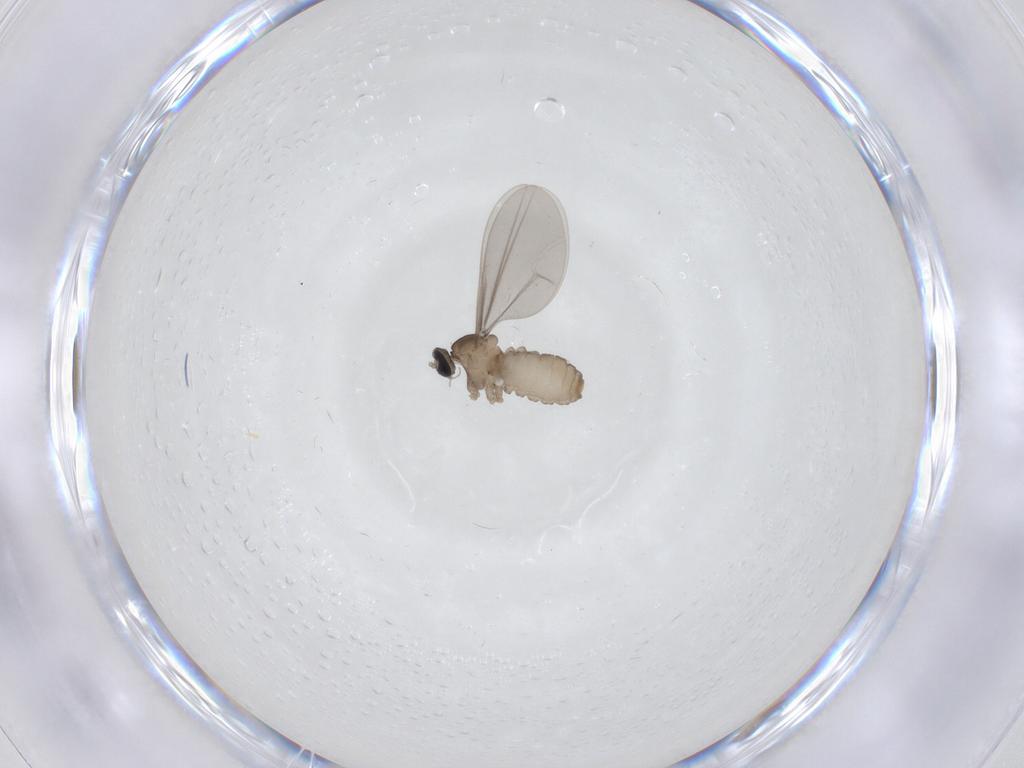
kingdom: Animalia
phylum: Arthropoda
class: Insecta
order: Diptera
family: Cecidomyiidae
